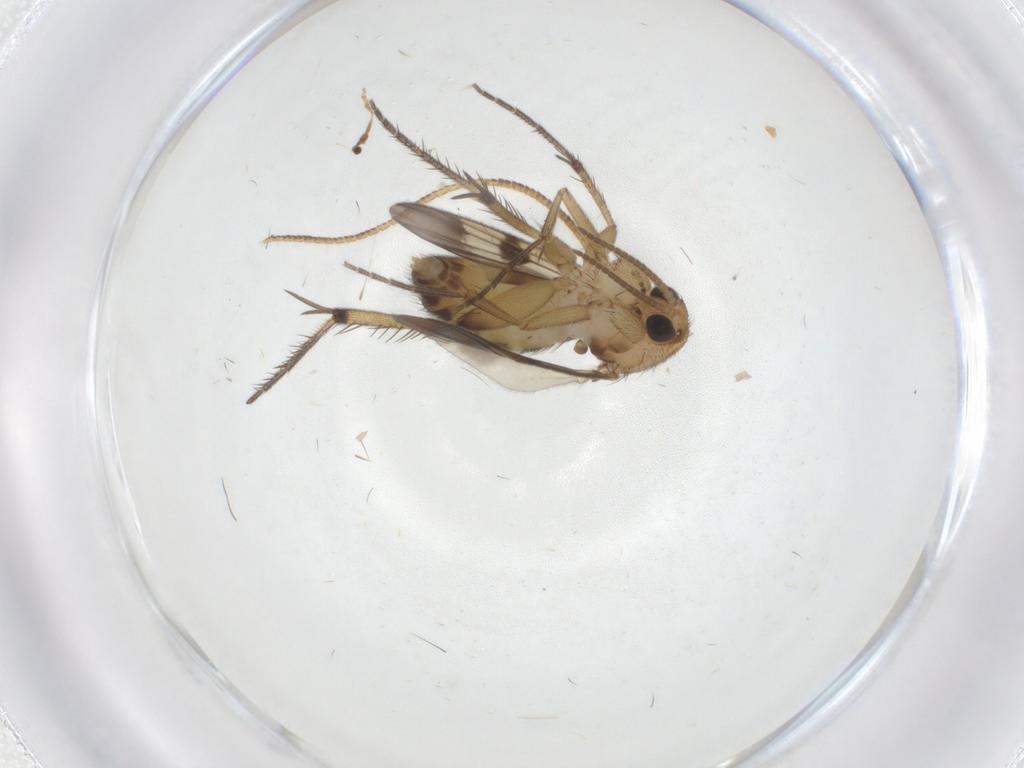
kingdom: Animalia
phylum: Arthropoda
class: Insecta
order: Diptera
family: Mycetophilidae
